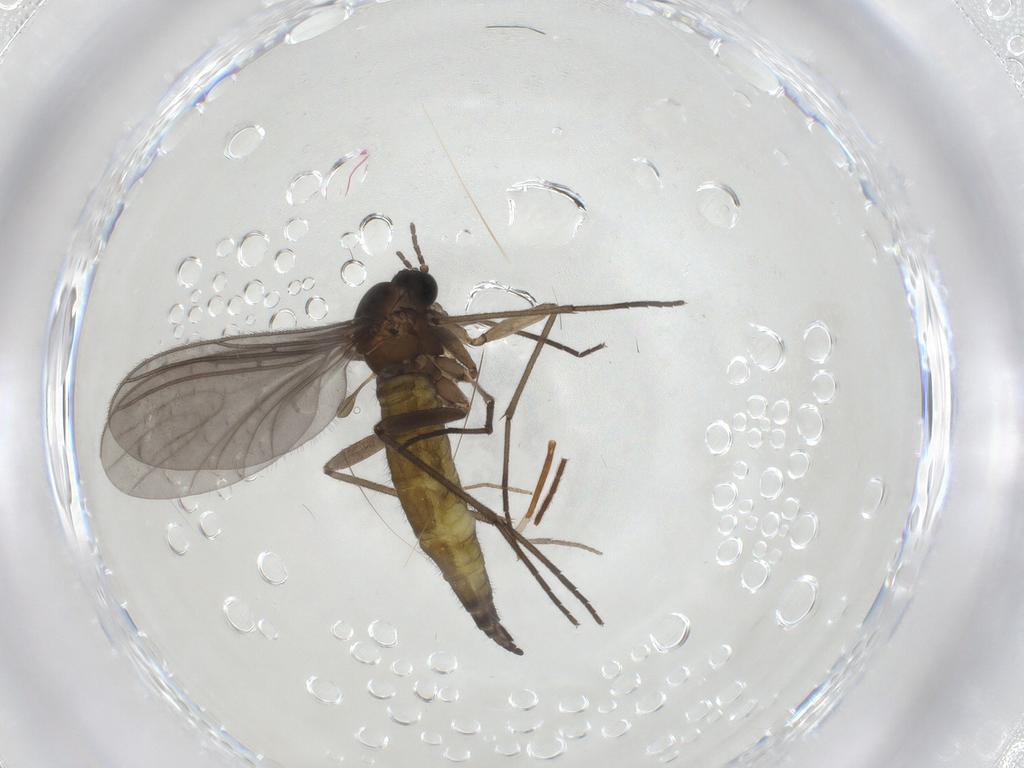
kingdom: Animalia
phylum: Arthropoda
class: Insecta
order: Diptera
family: Sciaridae
